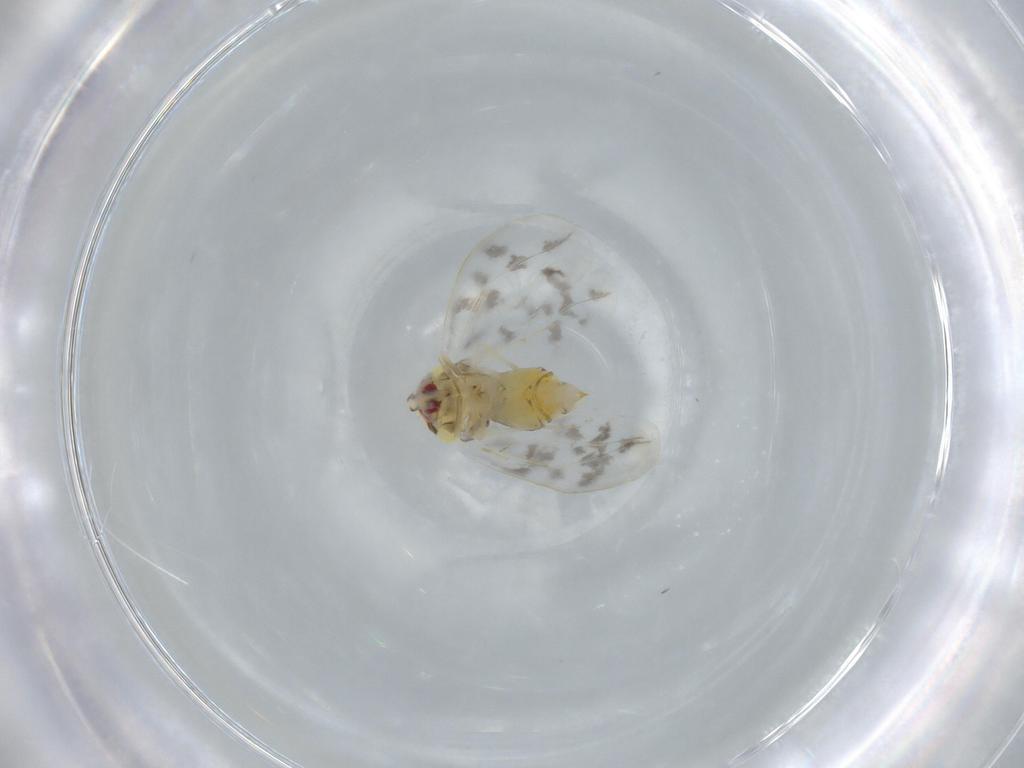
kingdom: Animalia
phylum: Arthropoda
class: Insecta
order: Hemiptera
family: Aleyrodidae
